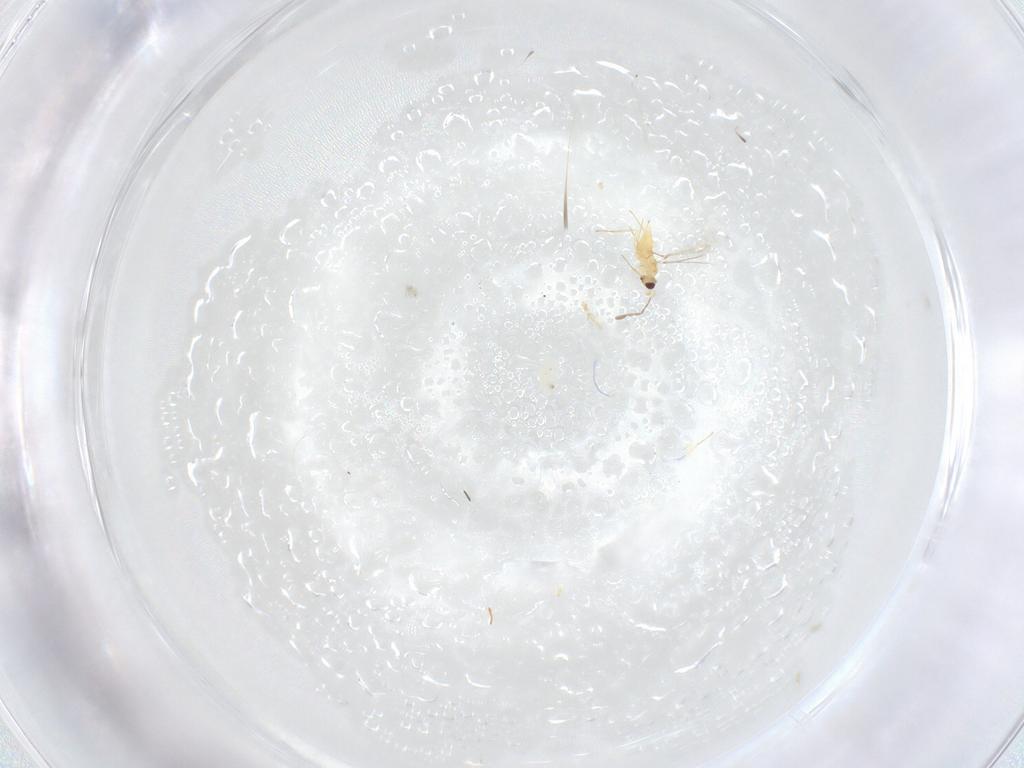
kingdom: Animalia
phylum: Arthropoda
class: Insecta
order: Hymenoptera
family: Mymaridae
